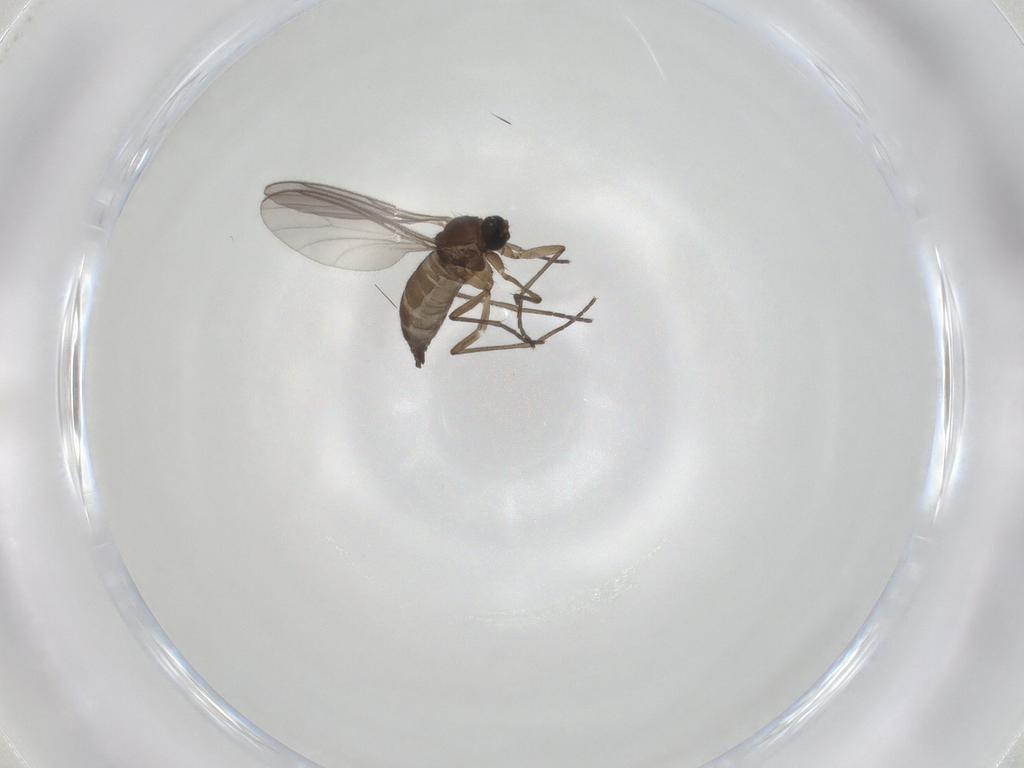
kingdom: Animalia
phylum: Arthropoda
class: Insecta
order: Diptera
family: Sciaridae
